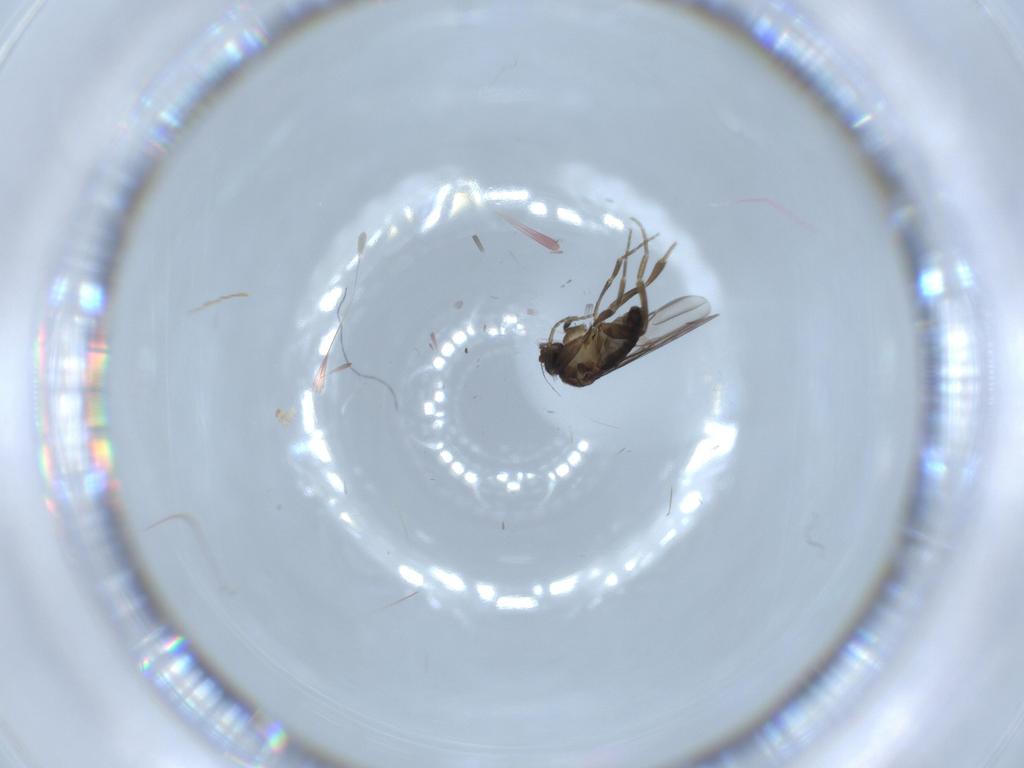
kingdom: Animalia
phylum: Arthropoda
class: Insecta
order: Diptera
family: Phoridae
